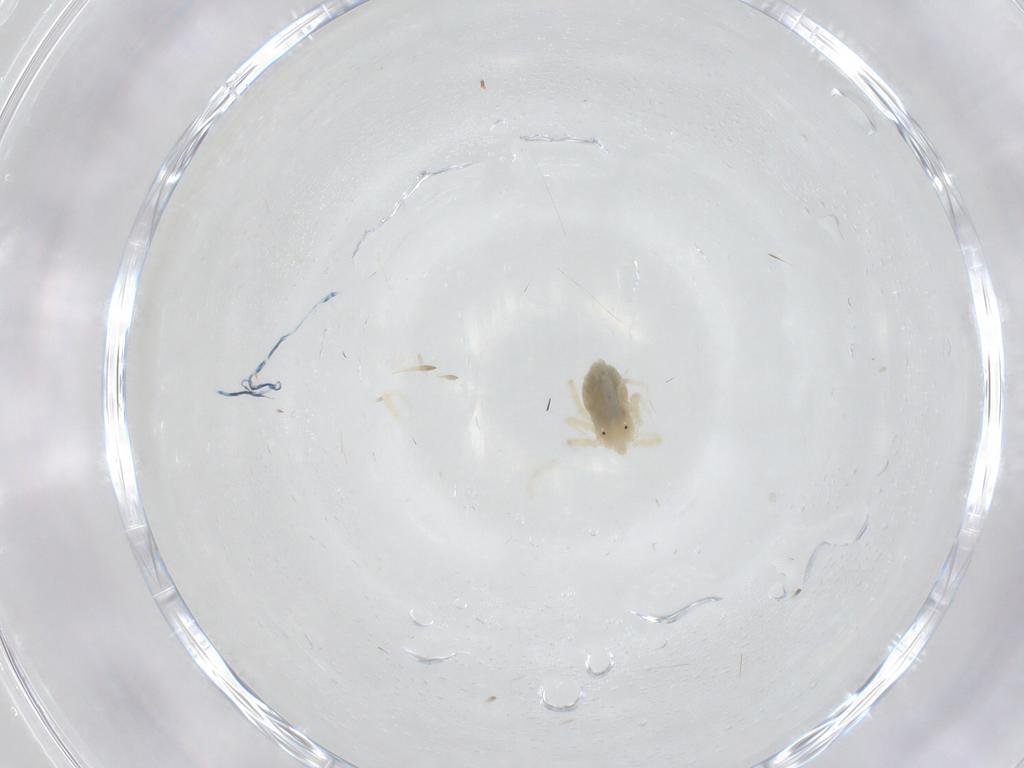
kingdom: Animalia
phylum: Arthropoda
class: Arachnida
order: Trombidiformes
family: Anystidae
